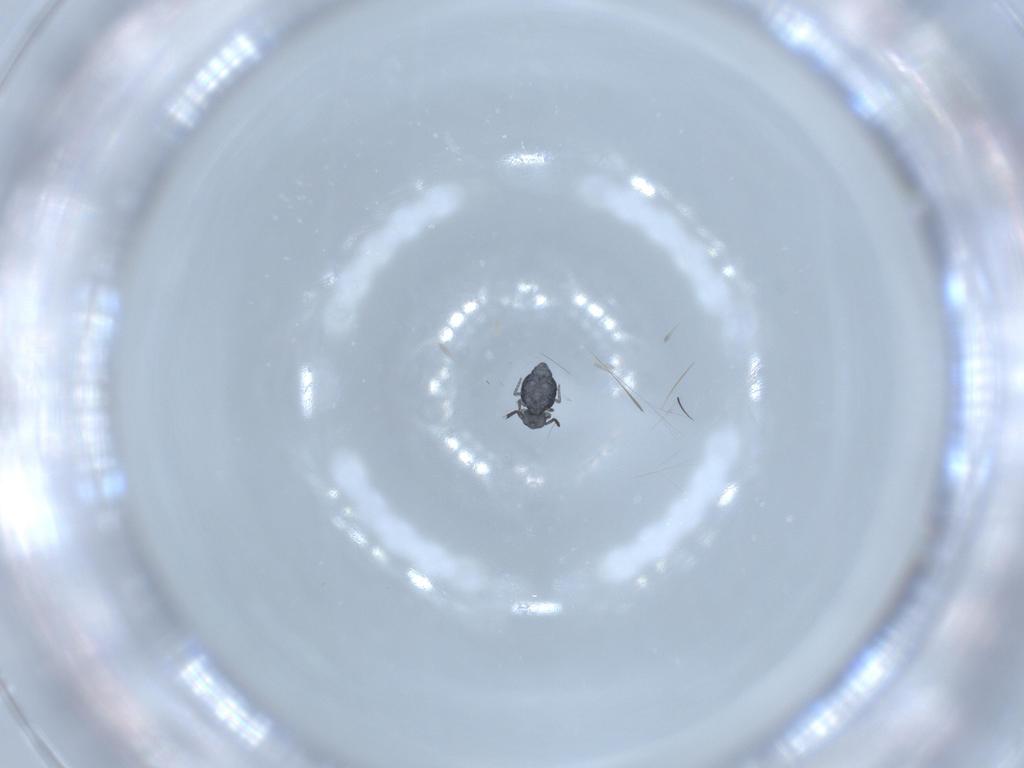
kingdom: Animalia
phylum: Arthropoda
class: Collembola
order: Symphypleona
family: Katiannidae
